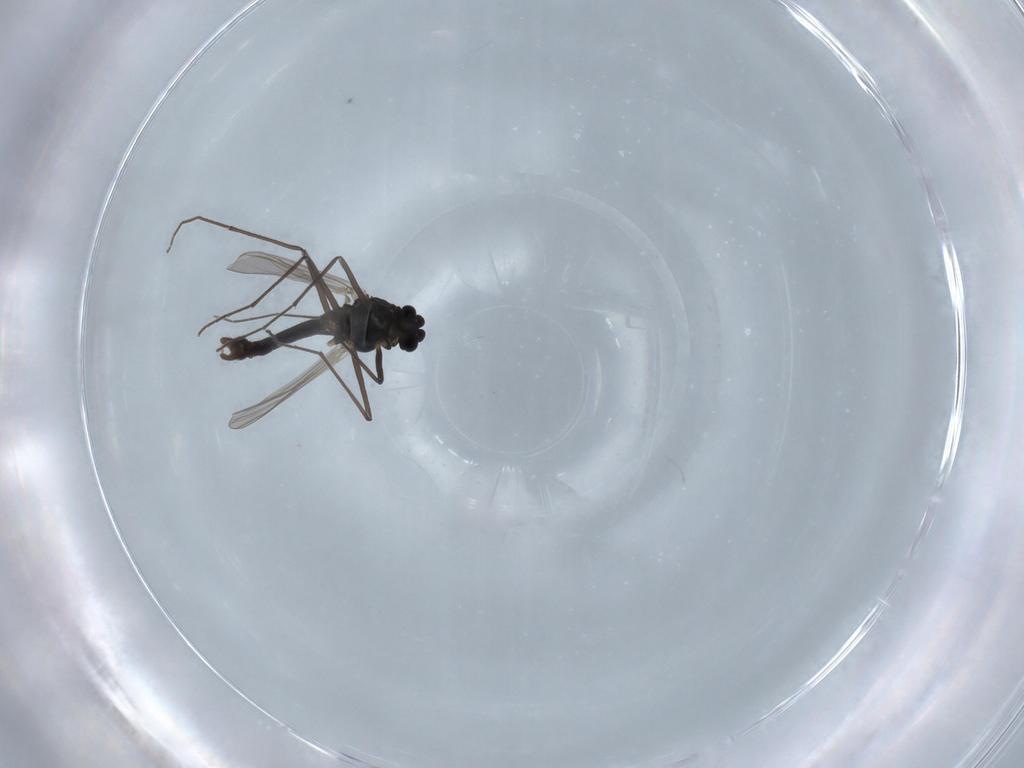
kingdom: Animalia
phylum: Arthropoda
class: Insecta
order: Diptera
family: Chironomidae
